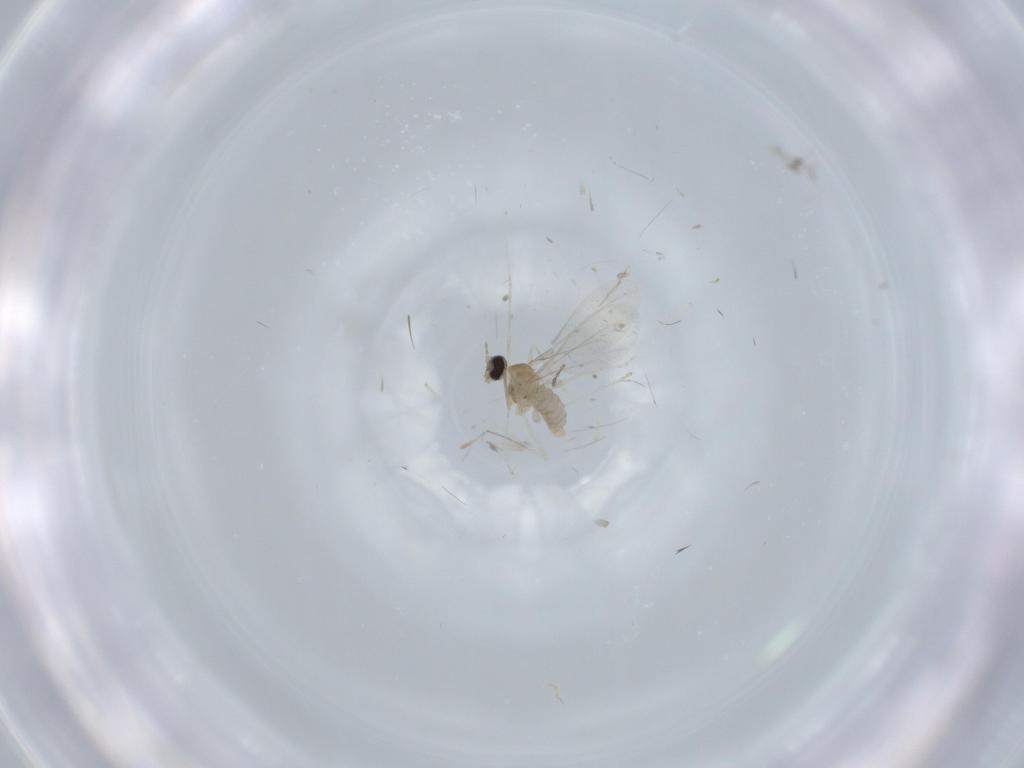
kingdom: Animalia
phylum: Arthropoda
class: Insecta
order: Diptera
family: Cecidomyiidae
